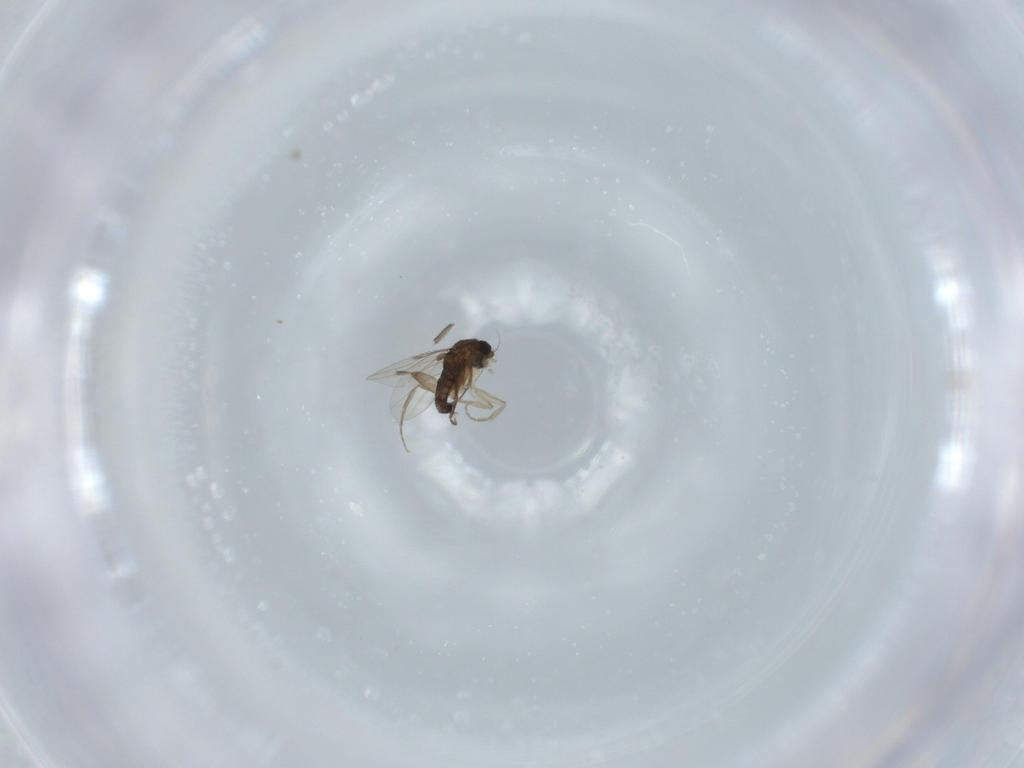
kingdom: Animalia
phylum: Arthropoda
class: Insecta
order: Diptera
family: Phoridae
